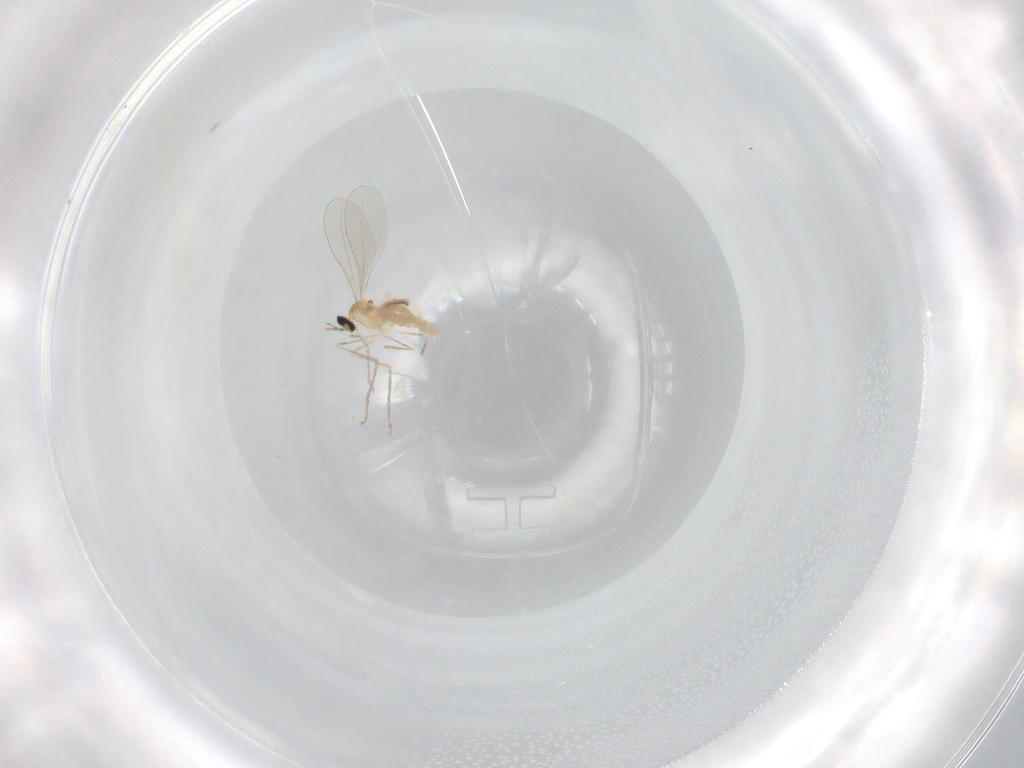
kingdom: Animalia
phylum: Arthropoda
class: Insecta
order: Diptera
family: Cecidomyiidae
